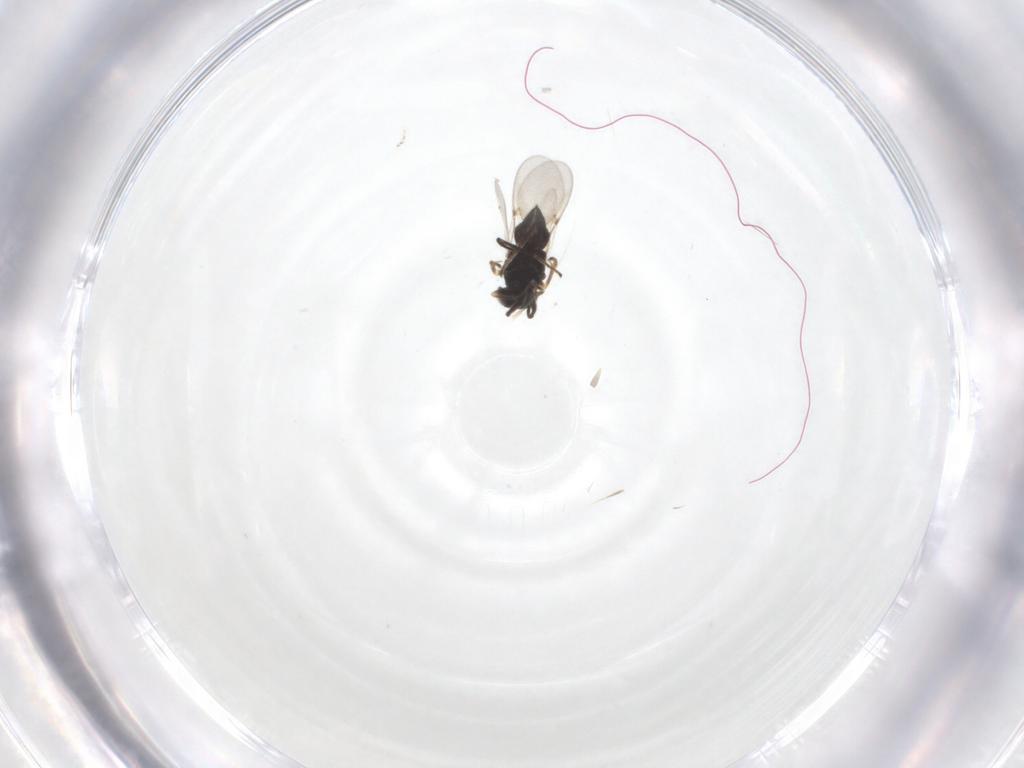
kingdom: Animalia
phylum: Arthropoda
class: Insecta
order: Hymenoptera
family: Encyrtidae
